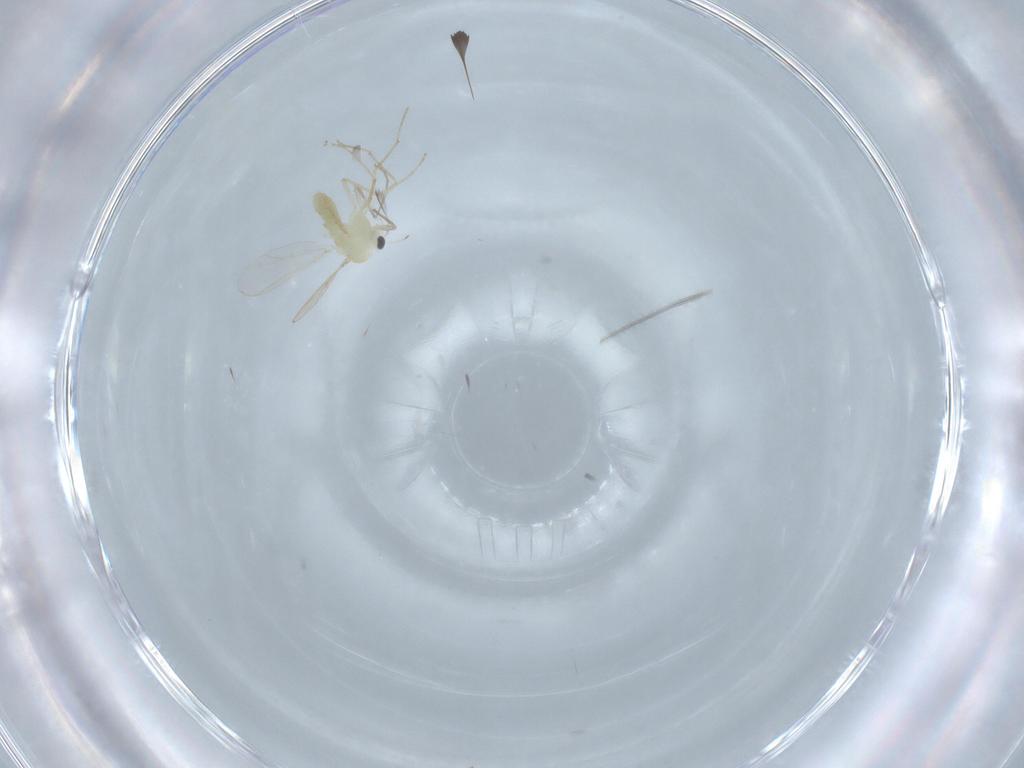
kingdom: Animalia
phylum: Arthropoda
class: Insecta
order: Diptera
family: Chironomidae
